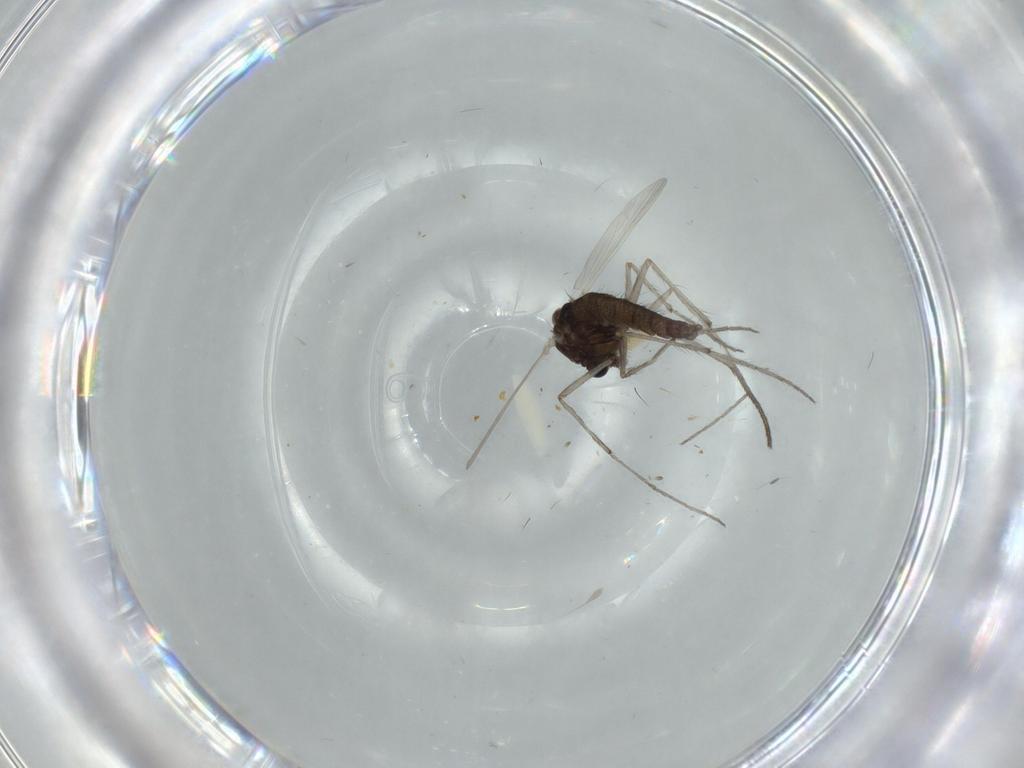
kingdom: Animalia
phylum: Arthropoda
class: Insecta
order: Diptera
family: Chironomidae
